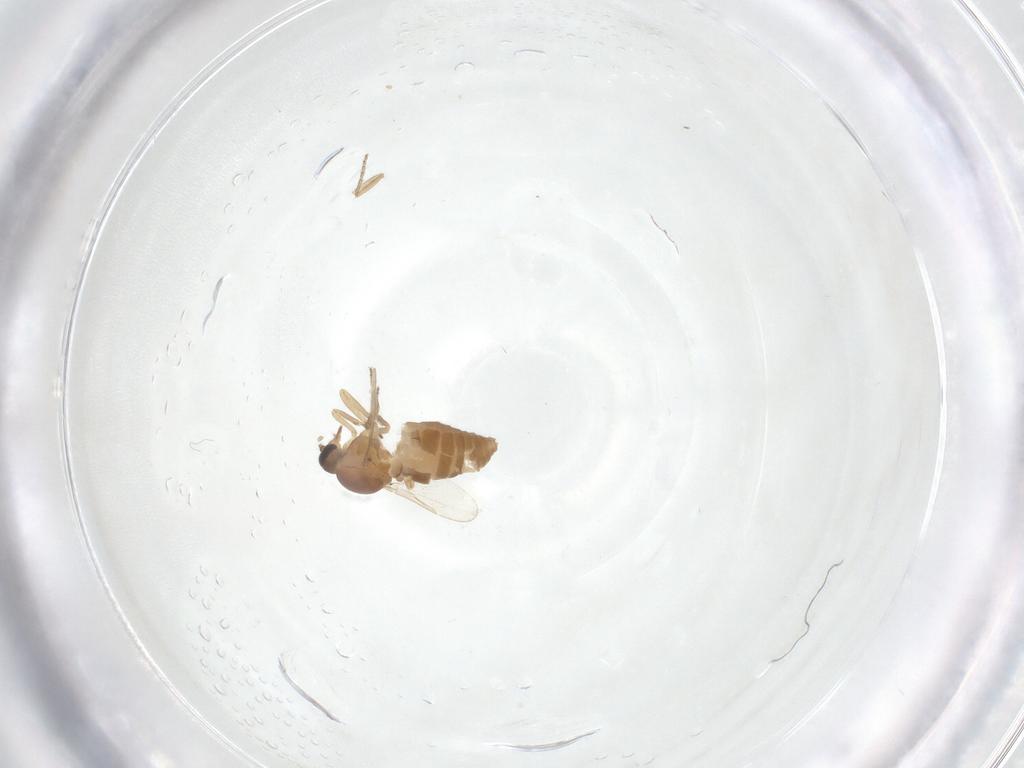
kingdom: Animalia
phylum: Arthropoda
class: Insecta
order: Diptera
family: Ceratopogonidae
